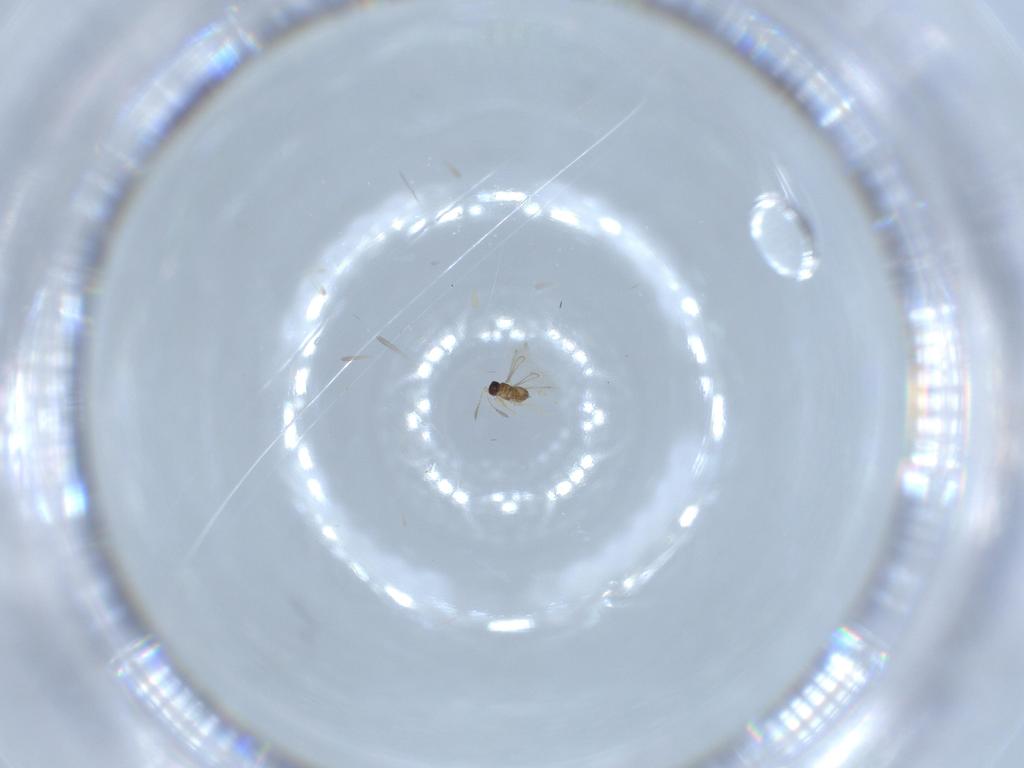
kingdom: Animalia
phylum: Arthropoda
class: Insecta
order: Hymenoptera
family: Mymaridae
